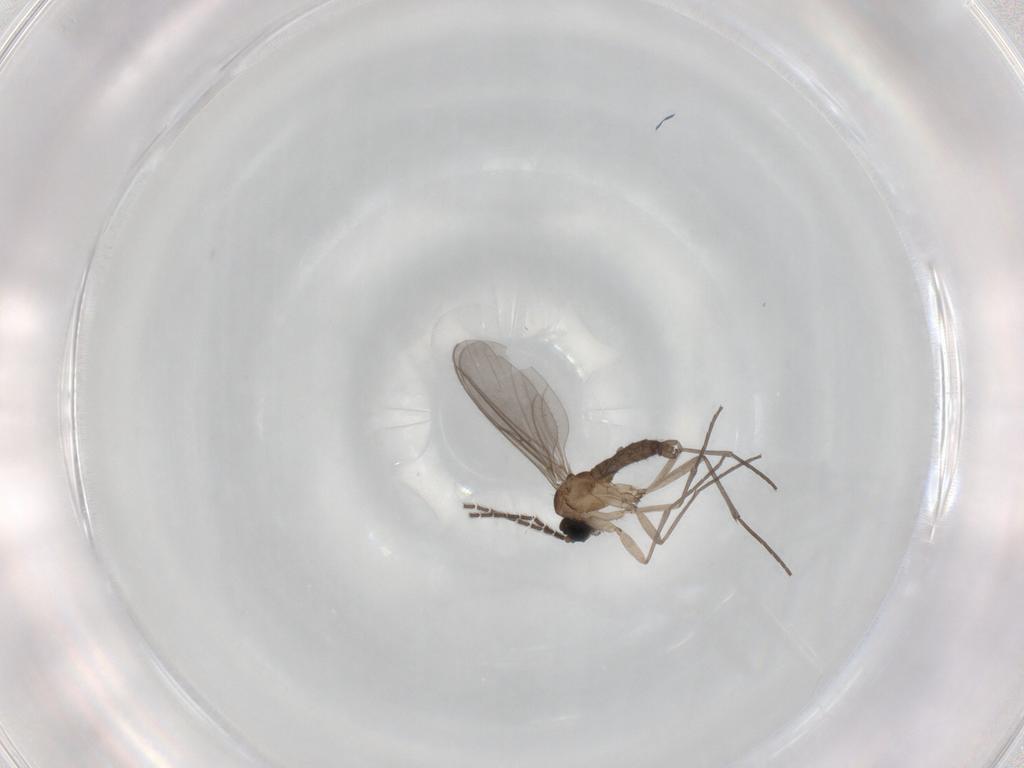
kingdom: Animalia
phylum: Arthropoda
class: Insecta
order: Diptera
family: Sciaridae
